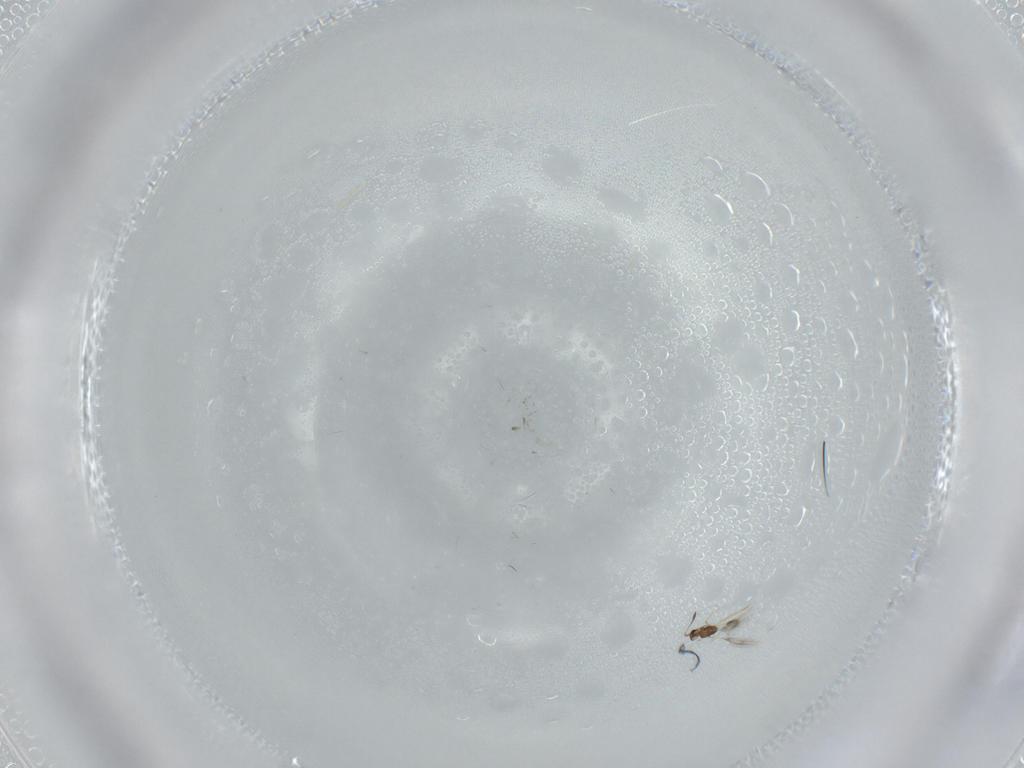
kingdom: Animalia
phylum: Arthropoda
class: Insecta
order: Hymenoptera
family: Mymarommatidae
